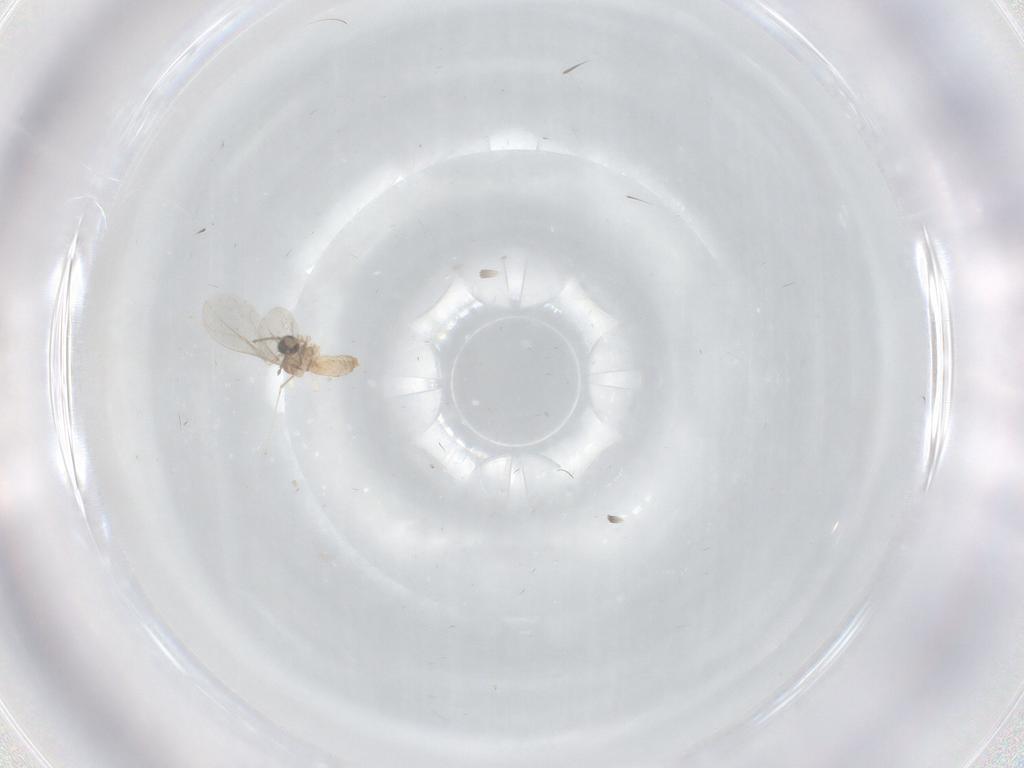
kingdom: Animalia
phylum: Arthropoda
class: Insecta
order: Diptera
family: Cecidomyiidae
